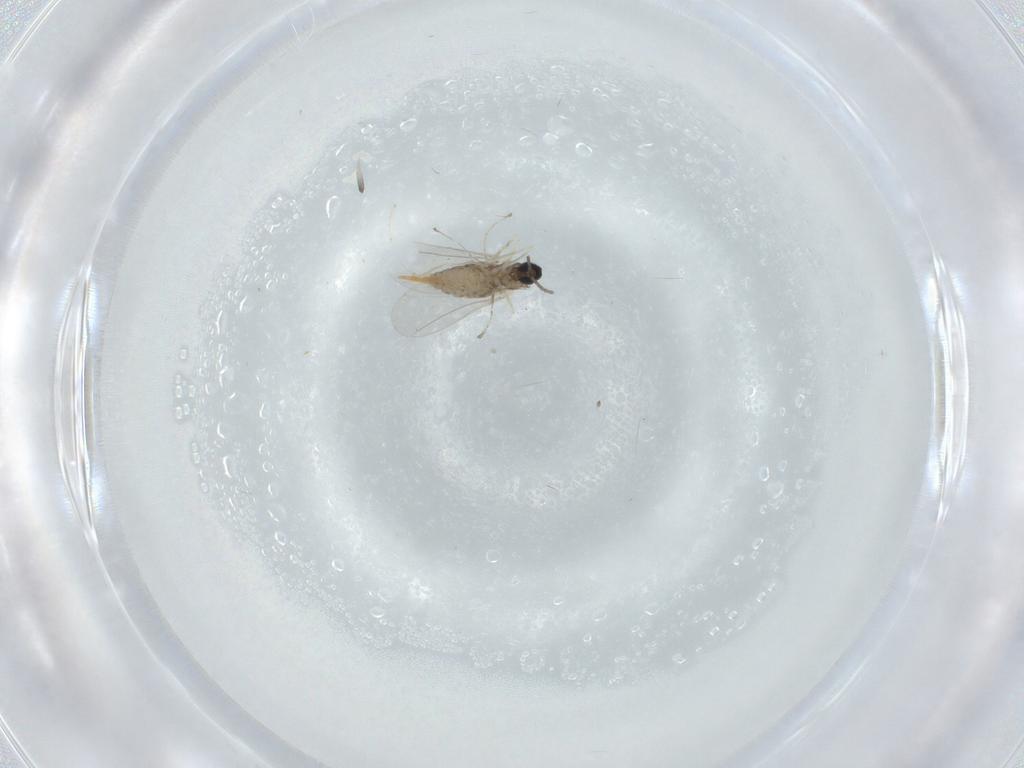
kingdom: Animalia
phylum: Arthropoda
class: Insecta
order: Diptera
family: Cecidomyiidae
